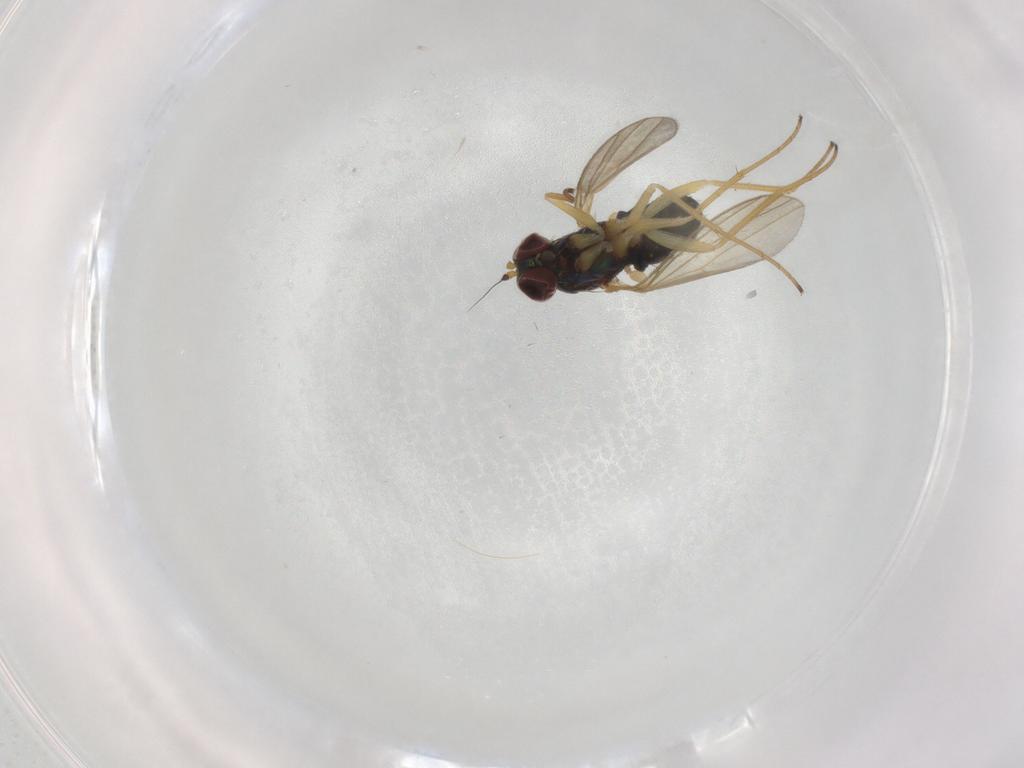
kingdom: Animalia
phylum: Arthropoda
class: Insecta
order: Diptera
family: Dolichopodidae
